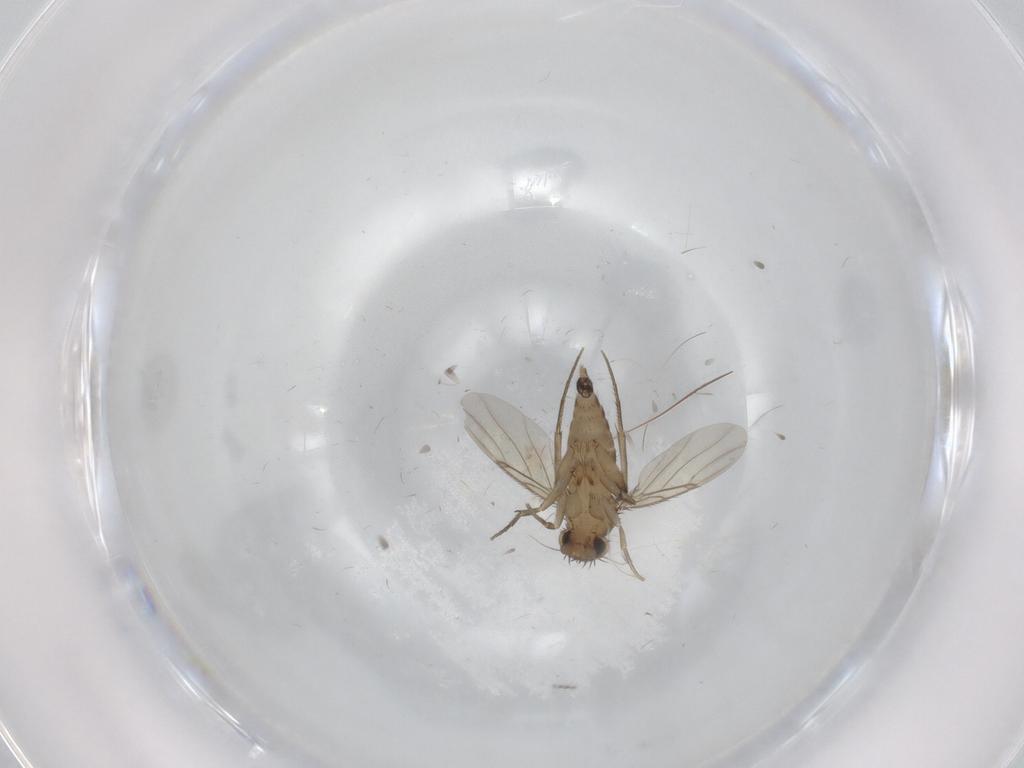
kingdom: Animalia
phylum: Arthropoda
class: Insecta
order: Diptera
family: Phoridae
